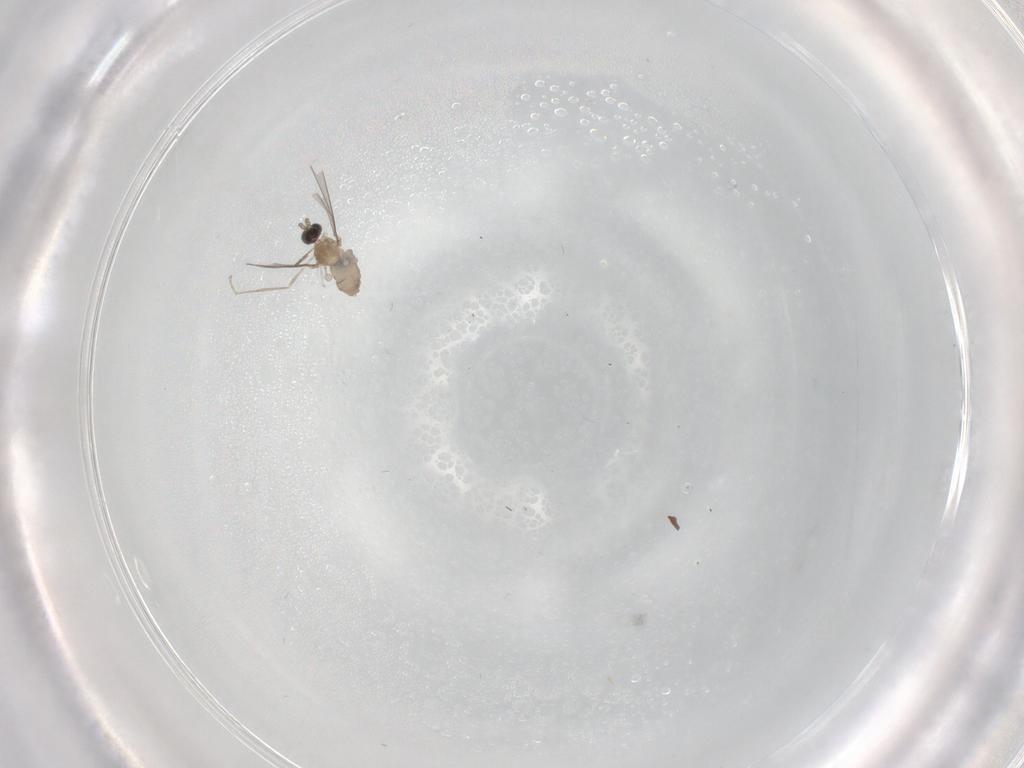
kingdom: Animalia
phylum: Arthropoda
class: Insecta
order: Diptera
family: Cecidomyiidae
